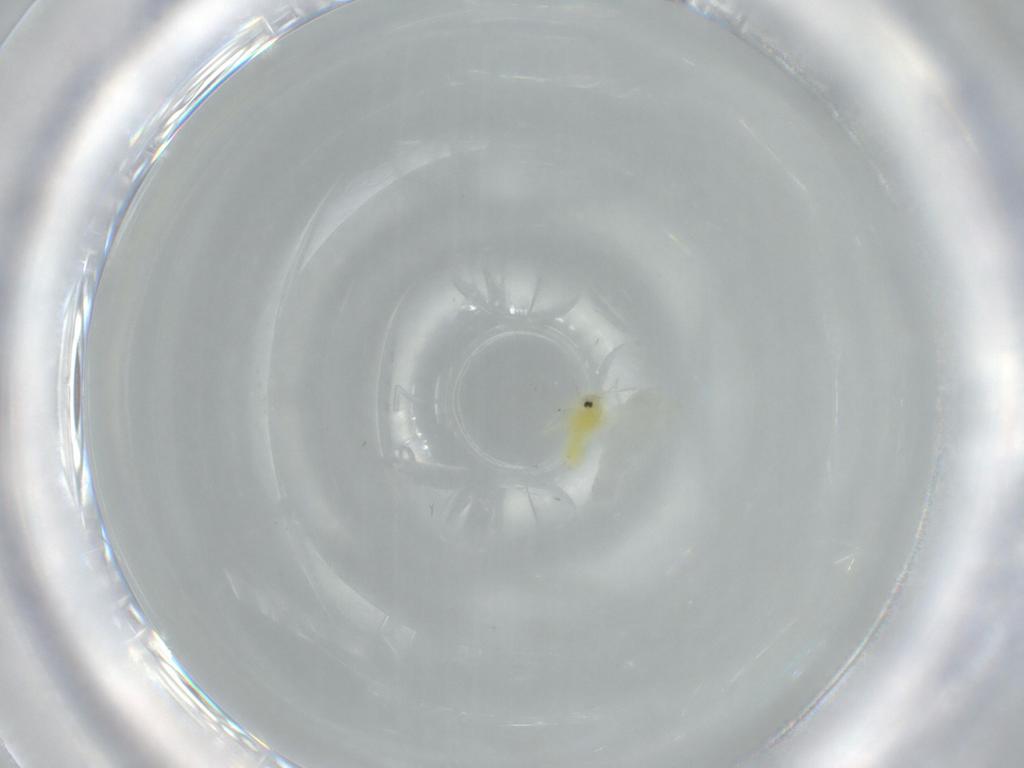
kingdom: Animalia
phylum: Arthropoda
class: Insecta
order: Hemiptera
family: Aleyrodidae
